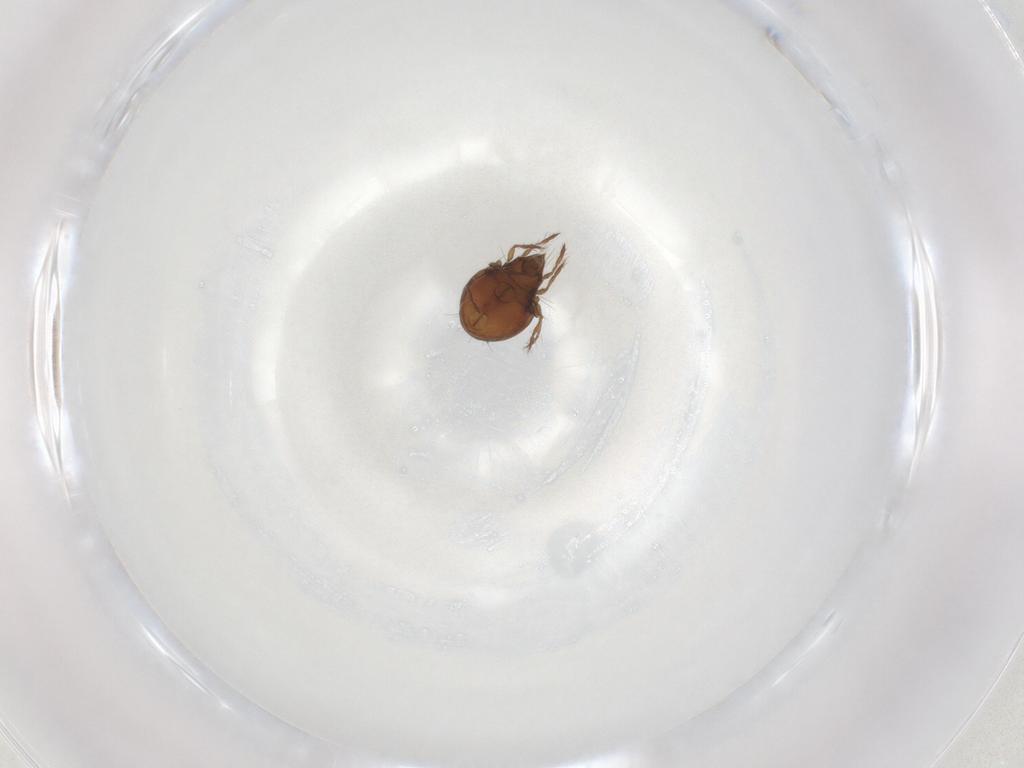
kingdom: Animalia
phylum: Arthropoda
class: Arachnida
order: Sarcoptiformes
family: Ceratoppiidae
